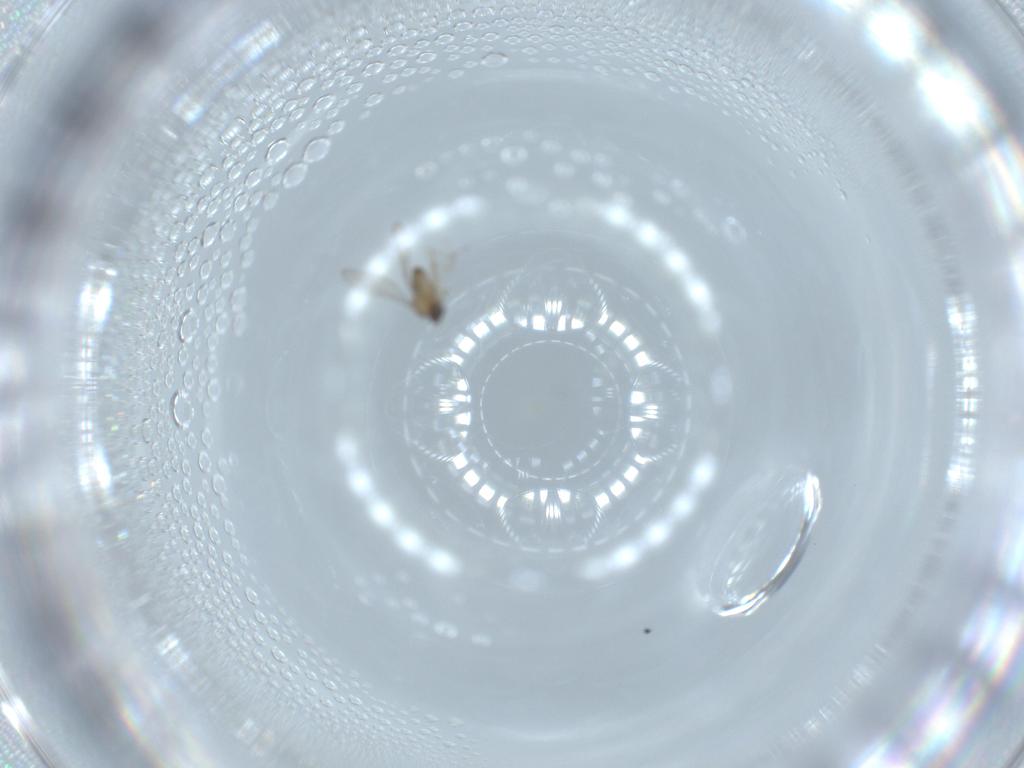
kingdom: Animalia
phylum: Arthropoda
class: Insecta
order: Diptera
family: Cecidomyiidae
